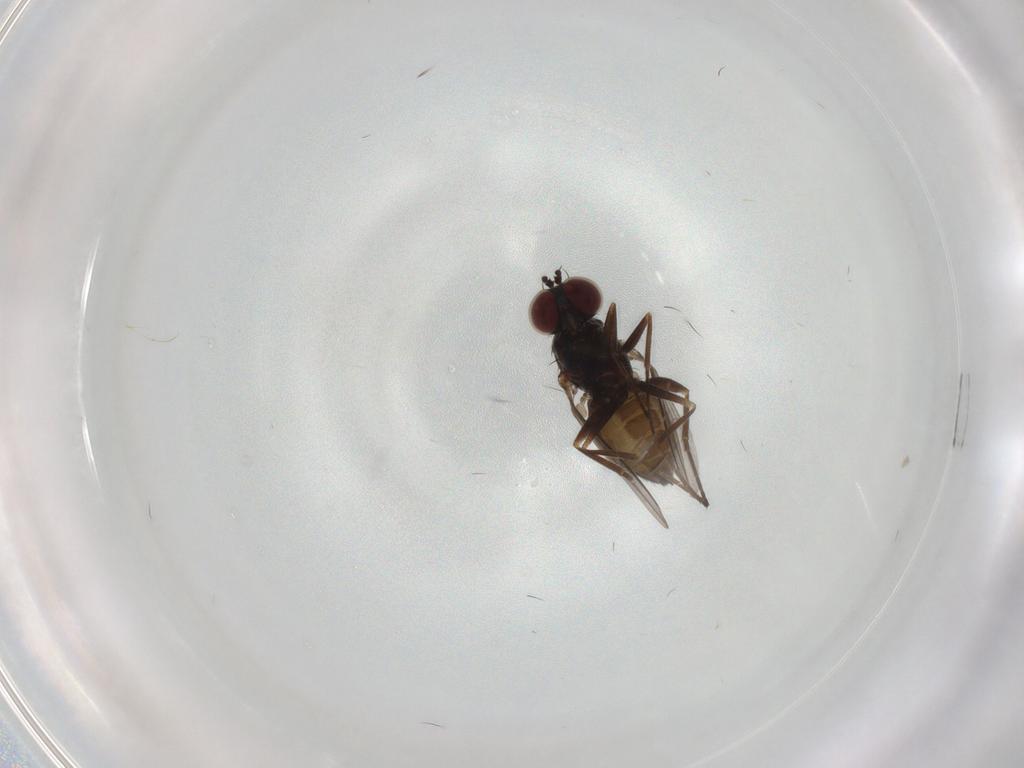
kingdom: Animalia
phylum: Arthropoda
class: Insecta
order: Diptera
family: Dolichopodidae
